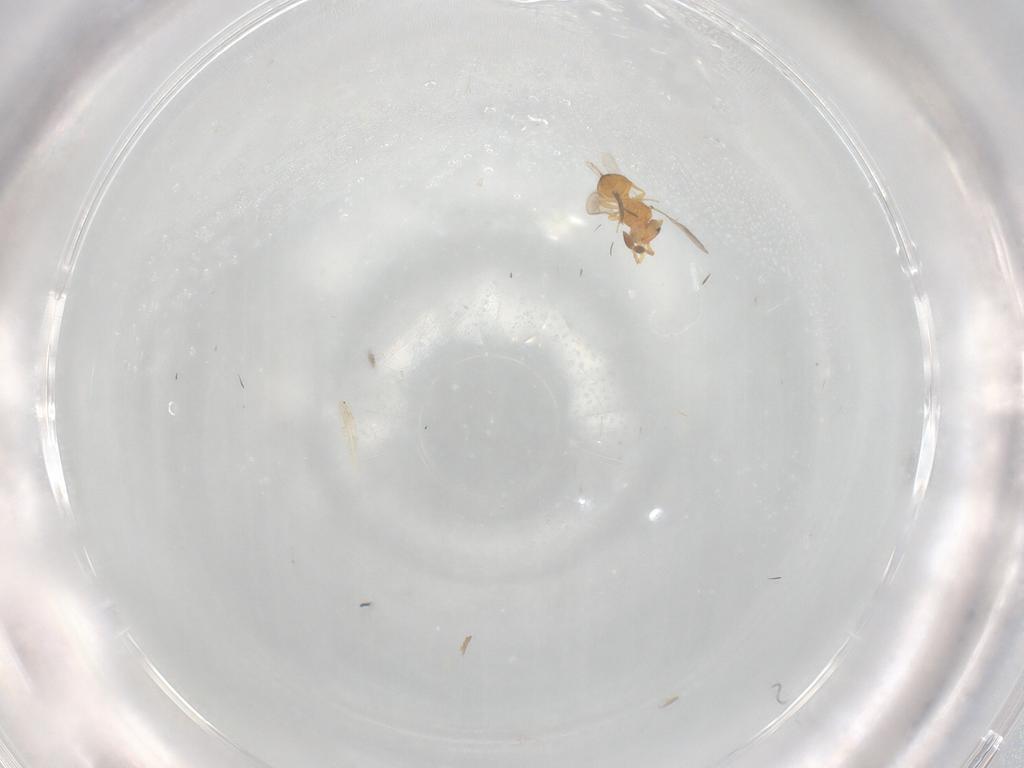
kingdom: Animalia
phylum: Arthropoda
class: Insecta
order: Hymenoptera
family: Scelionidae
